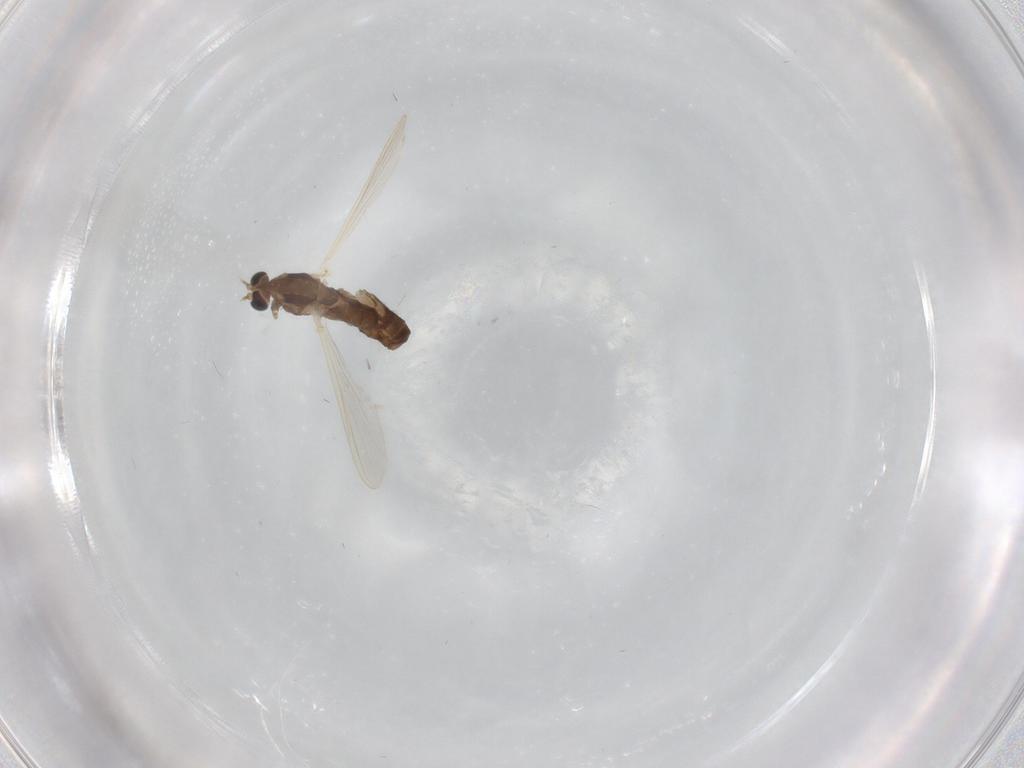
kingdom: Animalia
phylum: Arthropoda
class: Insecta
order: Diptera
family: Chironomidae
